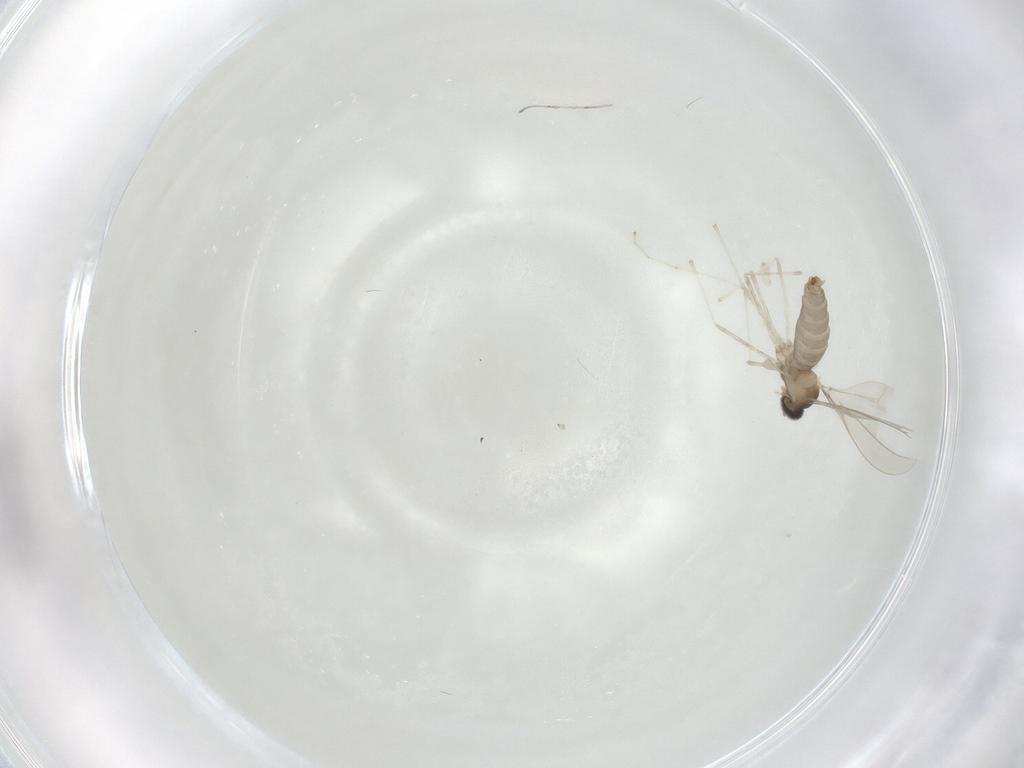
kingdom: Animalia
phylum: Arthropoda
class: Insecta
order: Diptera
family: Cecidomyiidae
